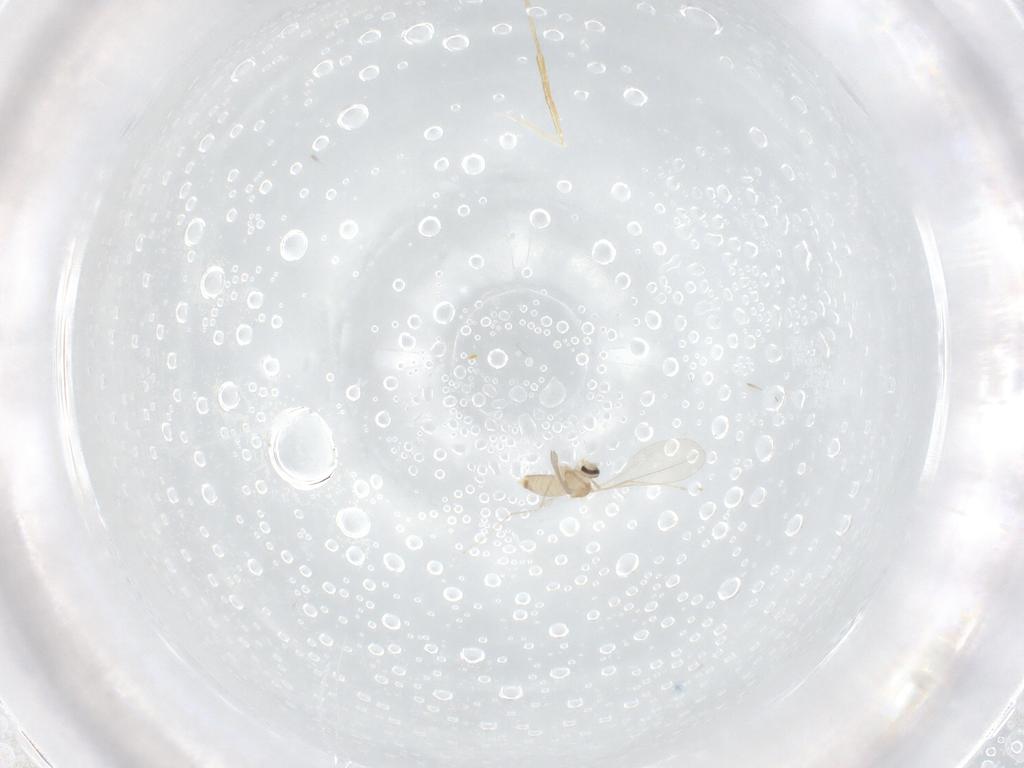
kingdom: Animalia
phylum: Arthropoda
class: Insecta
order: Diptera
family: Cecidomyiidae
